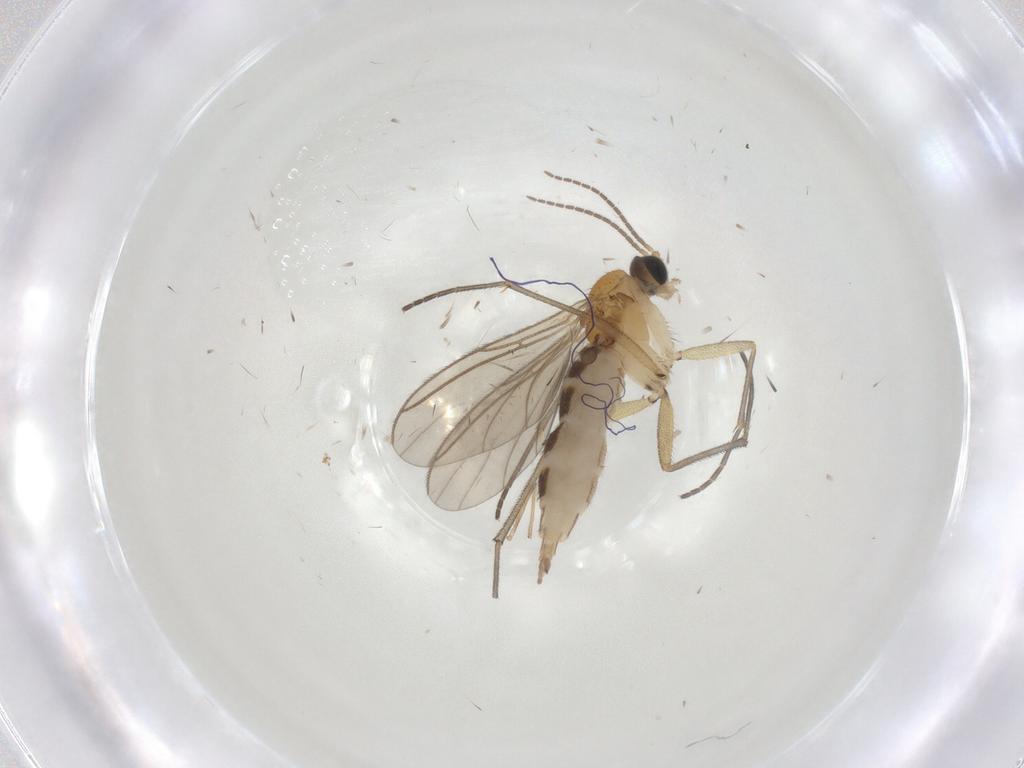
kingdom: Animalia
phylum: Arthropoda
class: Insecta
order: Diptera
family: Sciaridae
